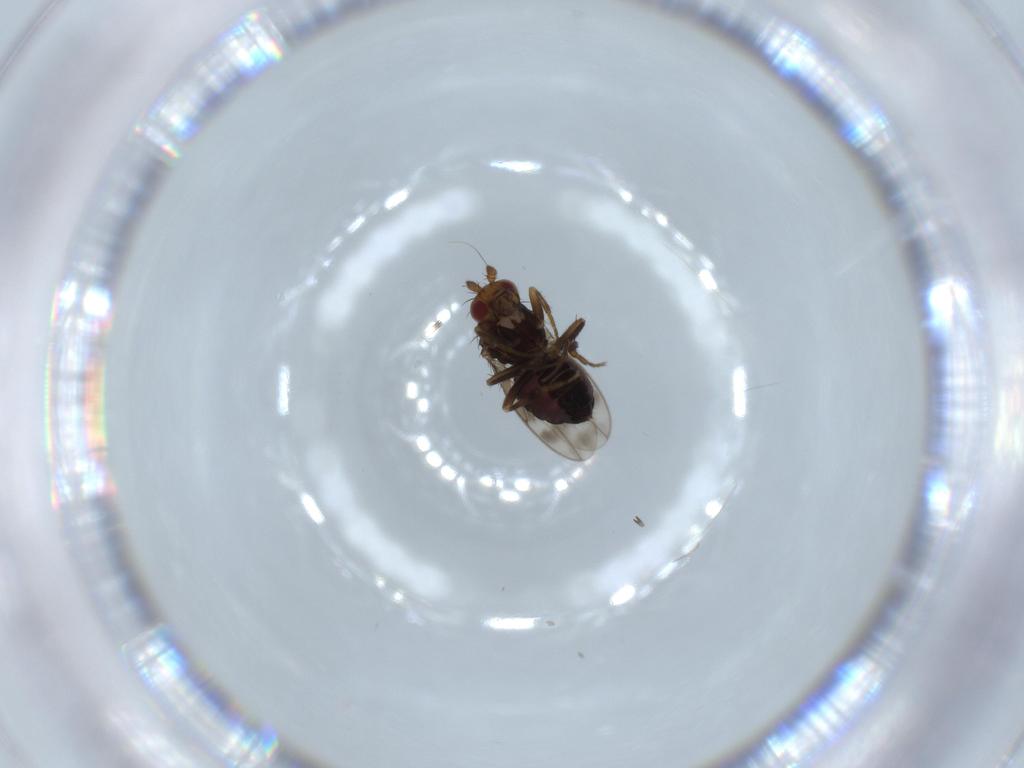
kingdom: Animalia
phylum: Arthropoda
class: Insecta
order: Diptera
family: Sphaeroceridae
